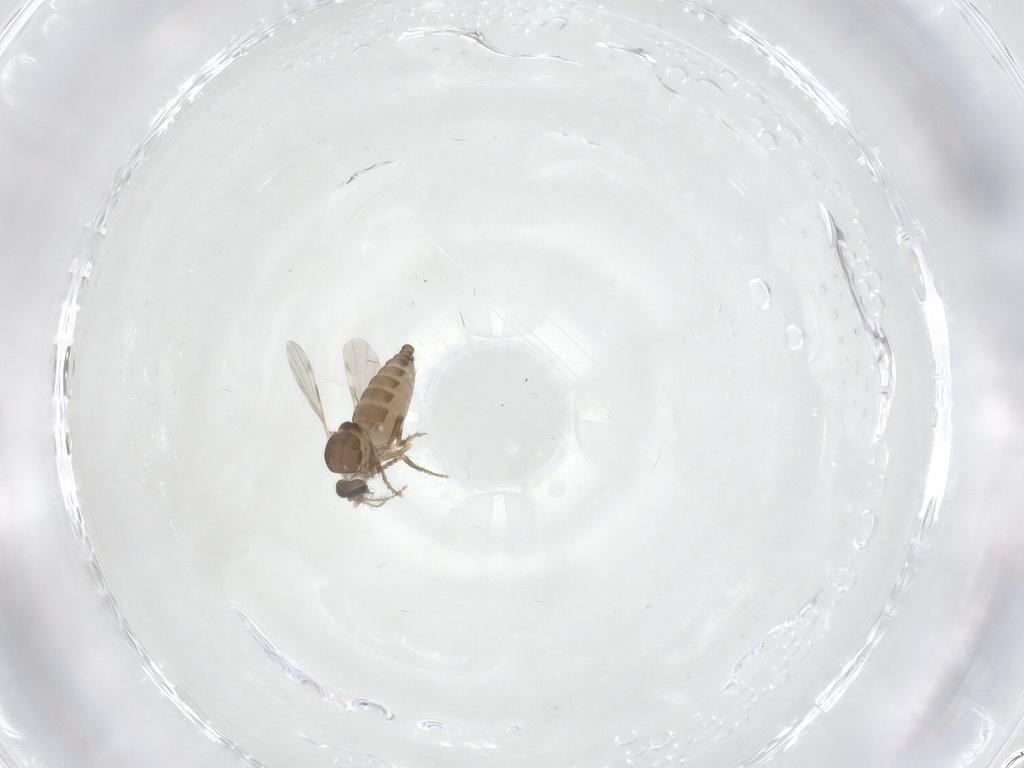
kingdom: Animalia
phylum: Arthropoda
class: Insecta
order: Diptera
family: Ceratopogonidae
